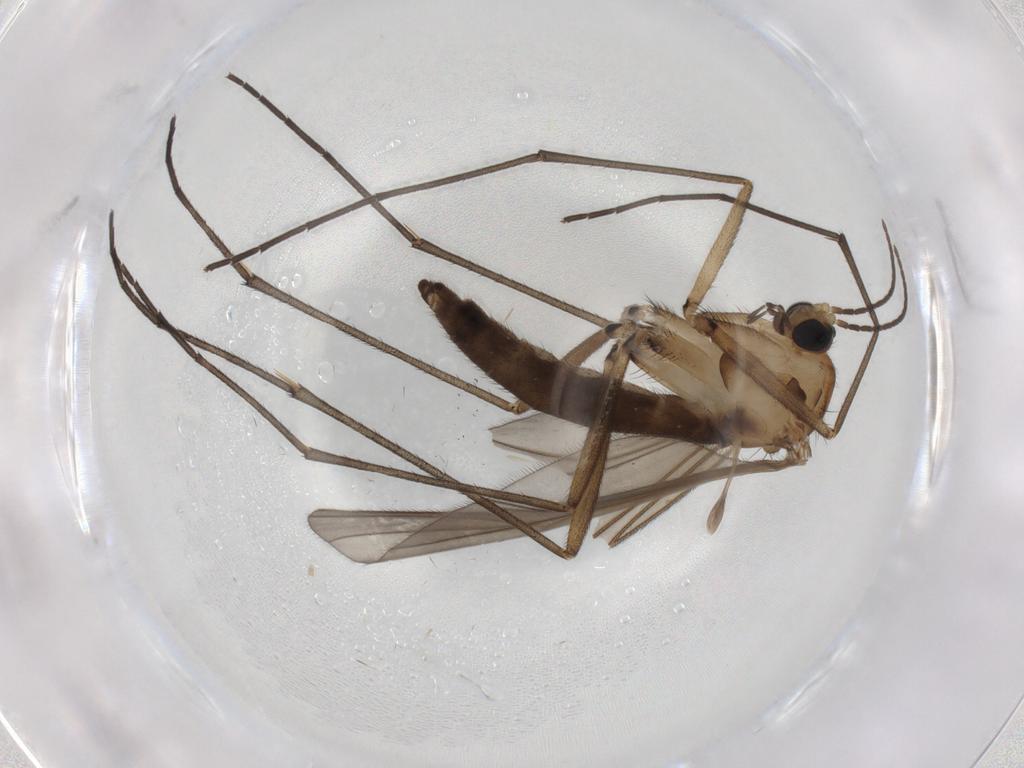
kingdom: Animalia
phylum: Arthropoda
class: Insecta
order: Diptera
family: Sciaridae
